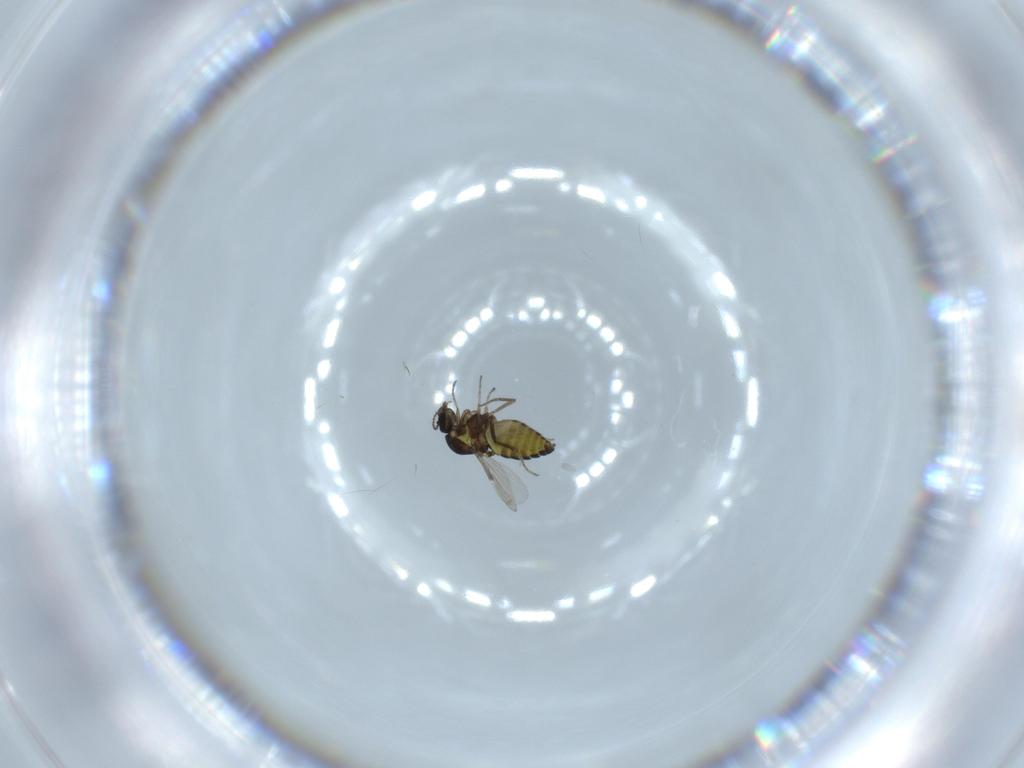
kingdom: Animalia
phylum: Arthropoda
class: Insecta
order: Diptera
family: Ceratopogonidae
